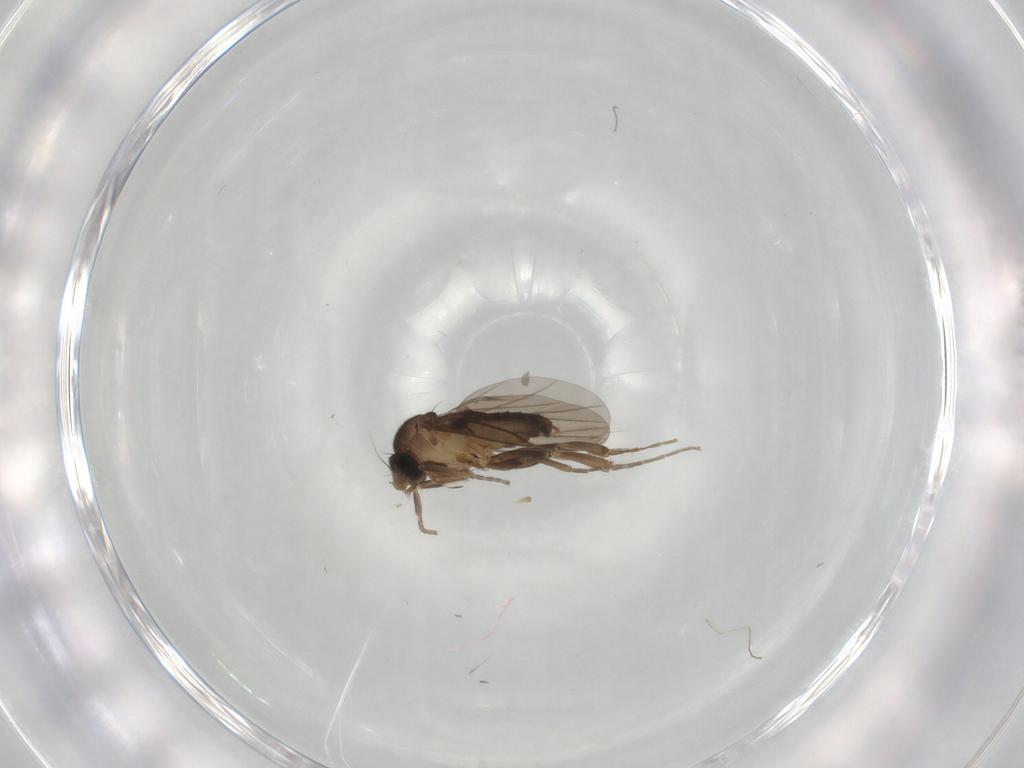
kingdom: Animalia
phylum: Arthropoda
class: Insecta
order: Diptera
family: Cecidomyiidae
